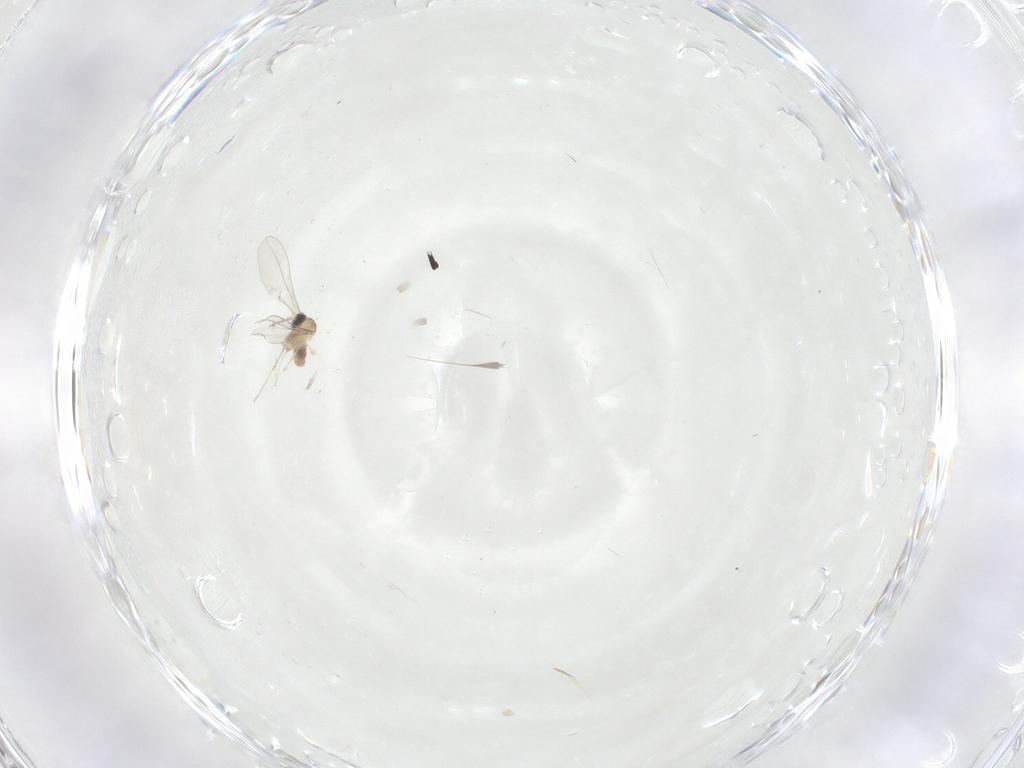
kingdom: Animalia
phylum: Arthropoda
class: Insecta
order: Diptera
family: Limoniidae
